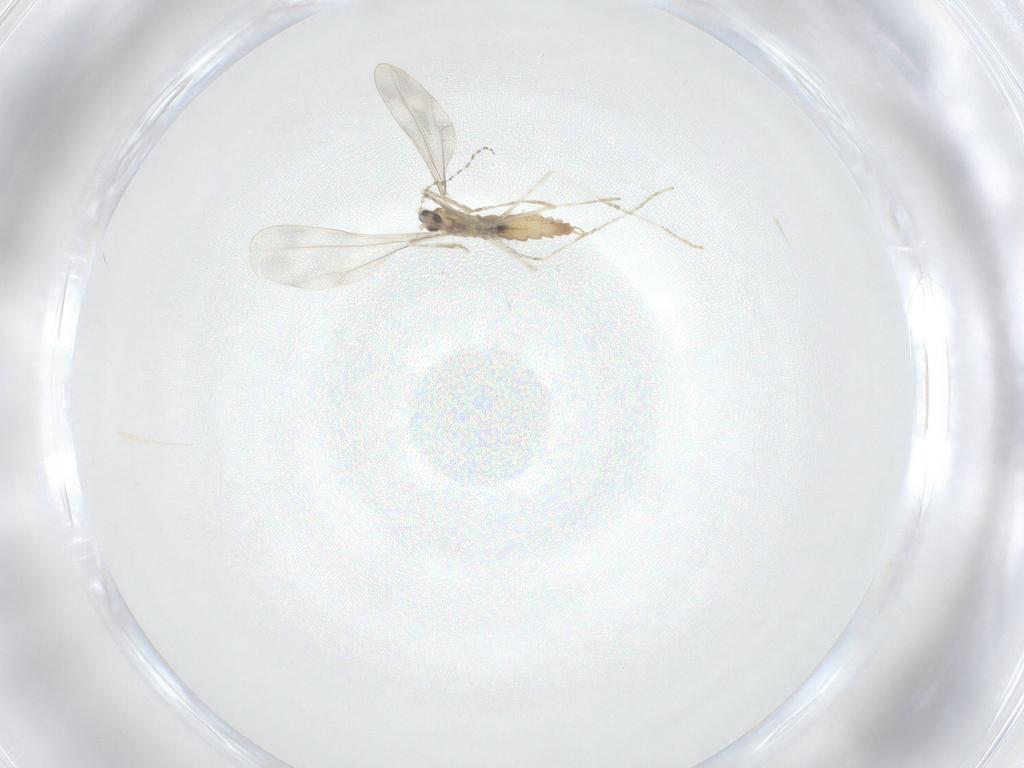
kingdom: Animalia
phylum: Arthropoda
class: Insecta
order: Diptera
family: Cecidomyiidae
